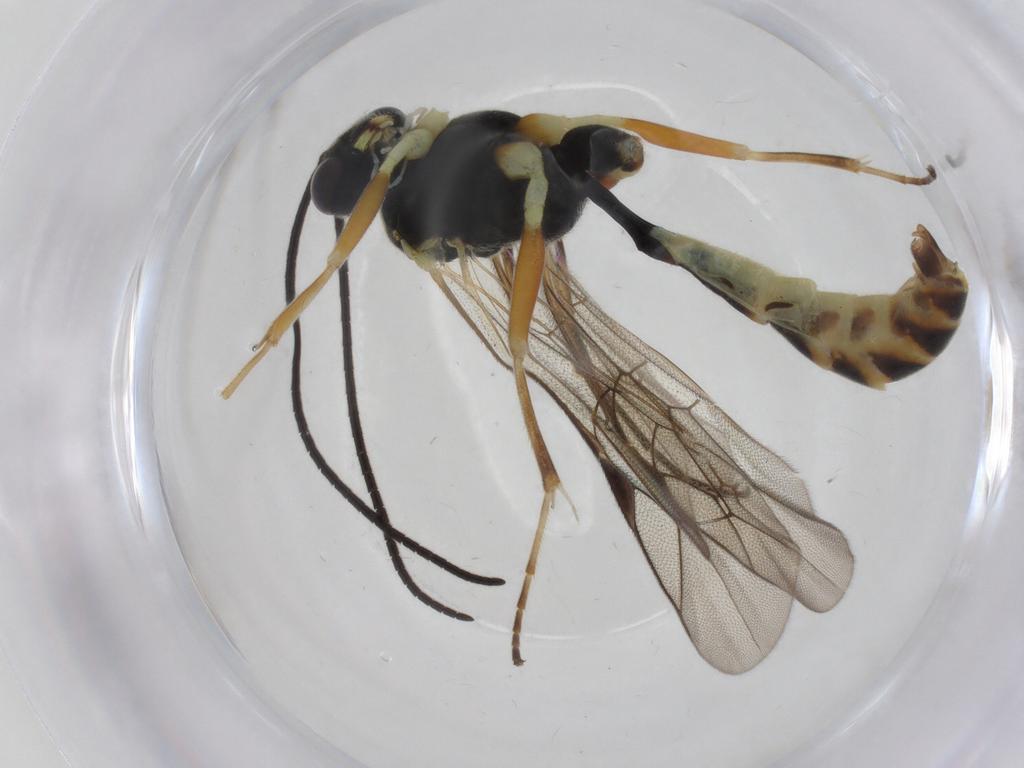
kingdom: Animalia
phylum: Arthropoda
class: Insecta
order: Hymenoptera
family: Ichneumonidae
